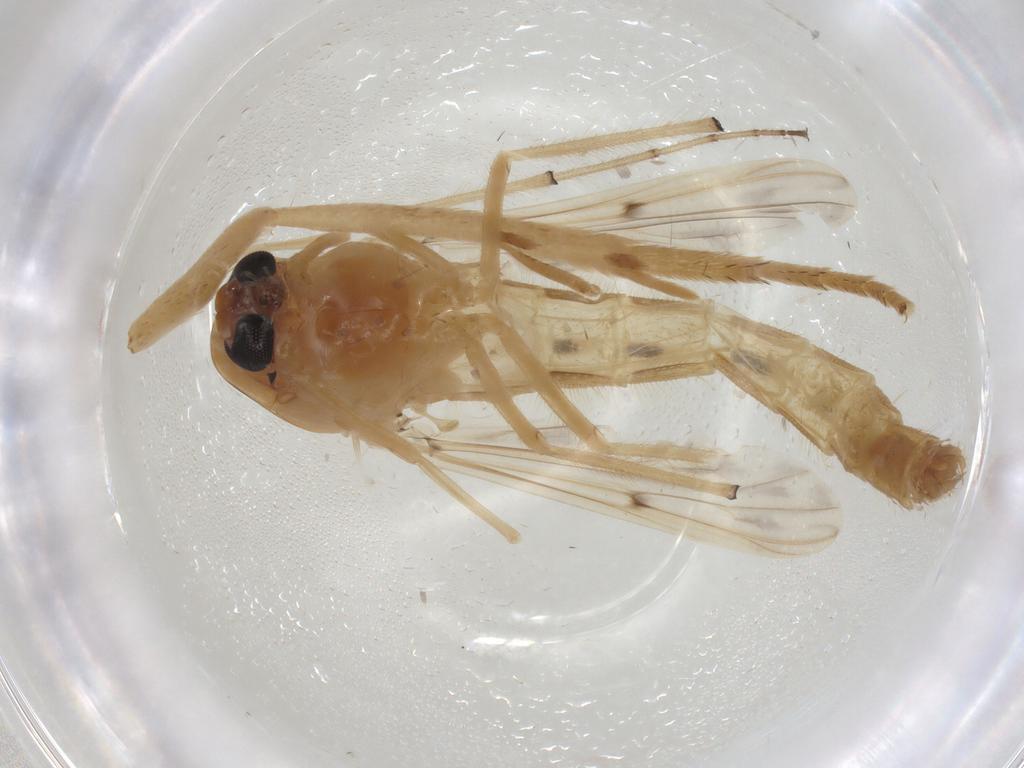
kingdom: Animalia
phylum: Arthropoda
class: Insecta
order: Diptera
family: Chironomidae
